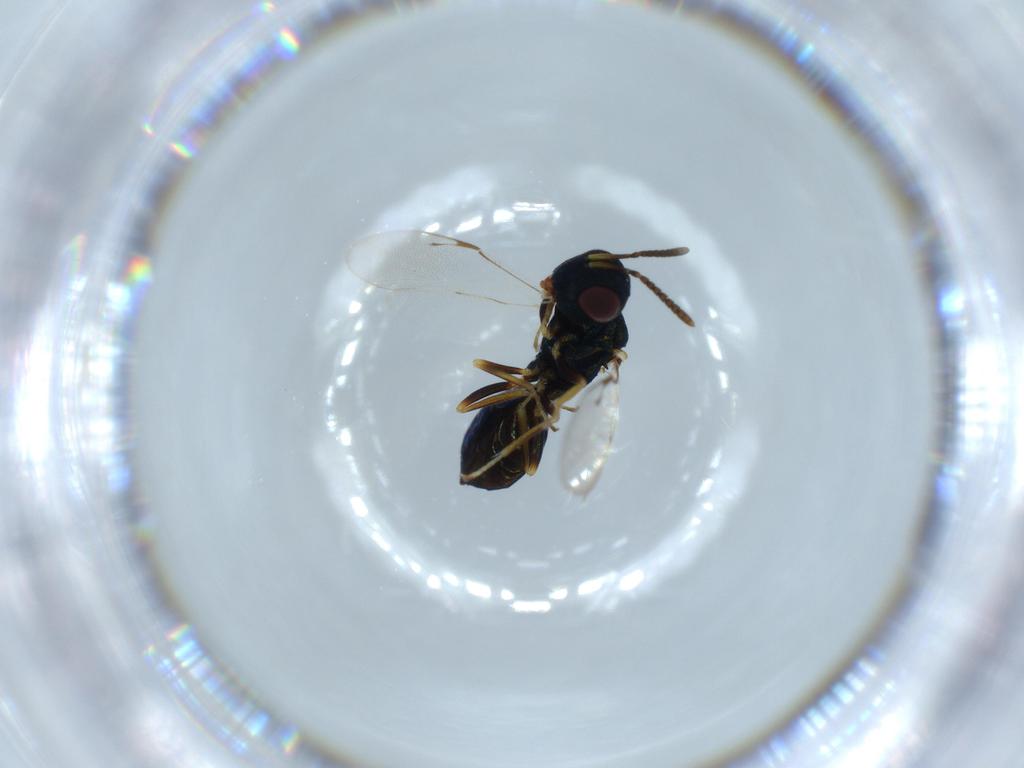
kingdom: Animalia
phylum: Arthropoda
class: Insecta
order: Hymenoptera
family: Pteromalidae
